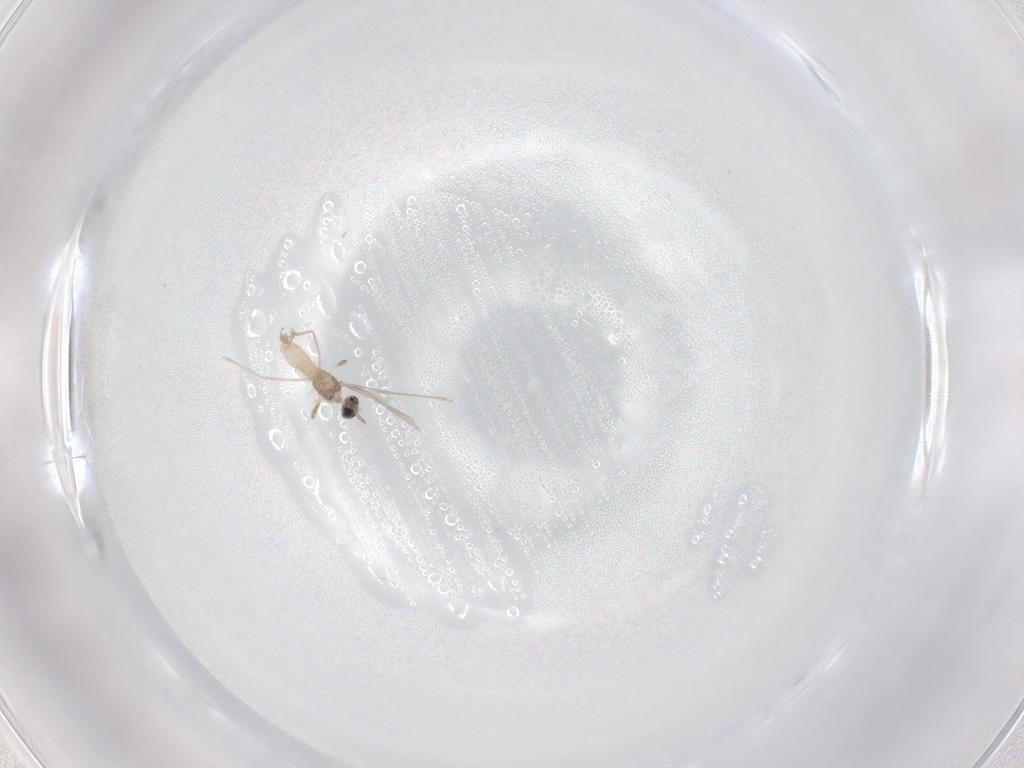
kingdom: Animalia
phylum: Arthropoda
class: Insecta
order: Diptera
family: Cecidomyiidae
